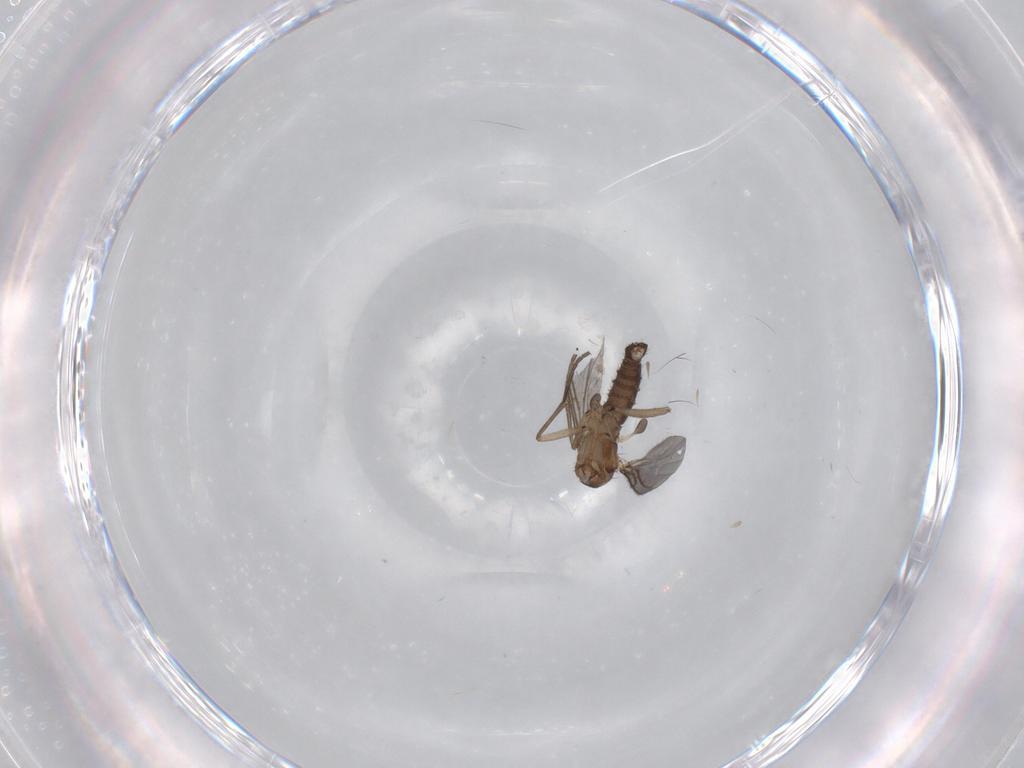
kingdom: Animalia
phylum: Arthropoda
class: Insecta
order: Diptera
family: Sciaridae
